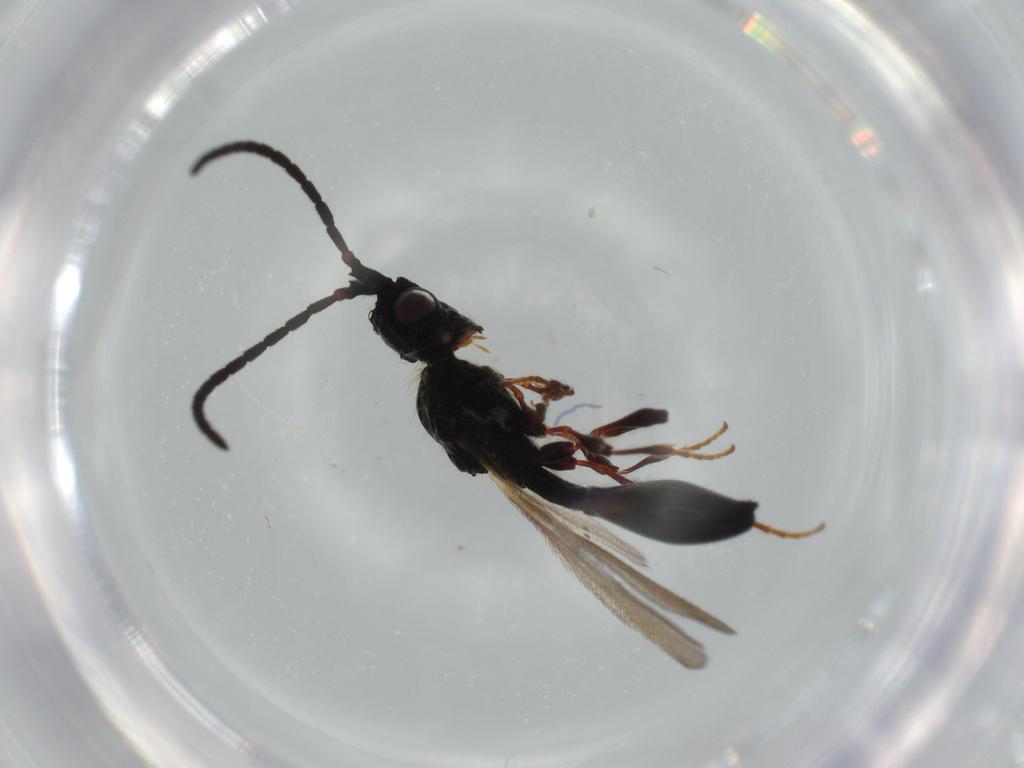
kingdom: Animalia
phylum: Arthropoda
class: Insecta
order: Hymenoptera
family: Diapriidae
